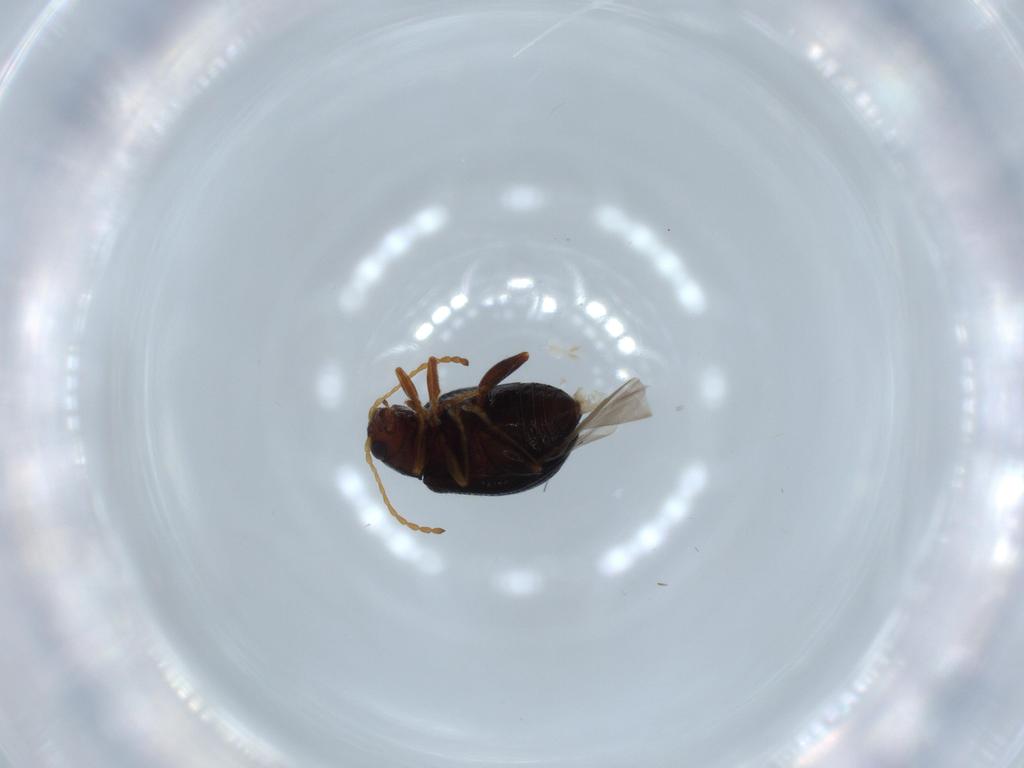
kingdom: Animalia
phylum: Arthropoda
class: Insecta
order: Coleoptera
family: Chrysomelidae
